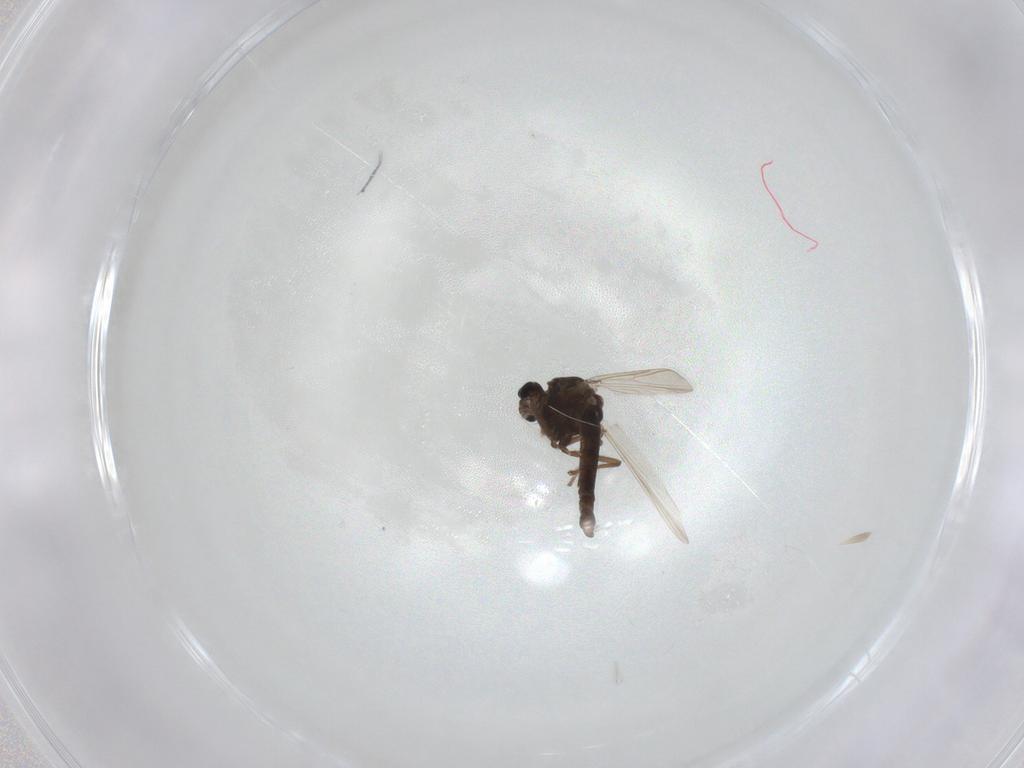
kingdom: Animalia
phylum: Arthropoda
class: Insecta
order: Diptera
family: Chironomidae
